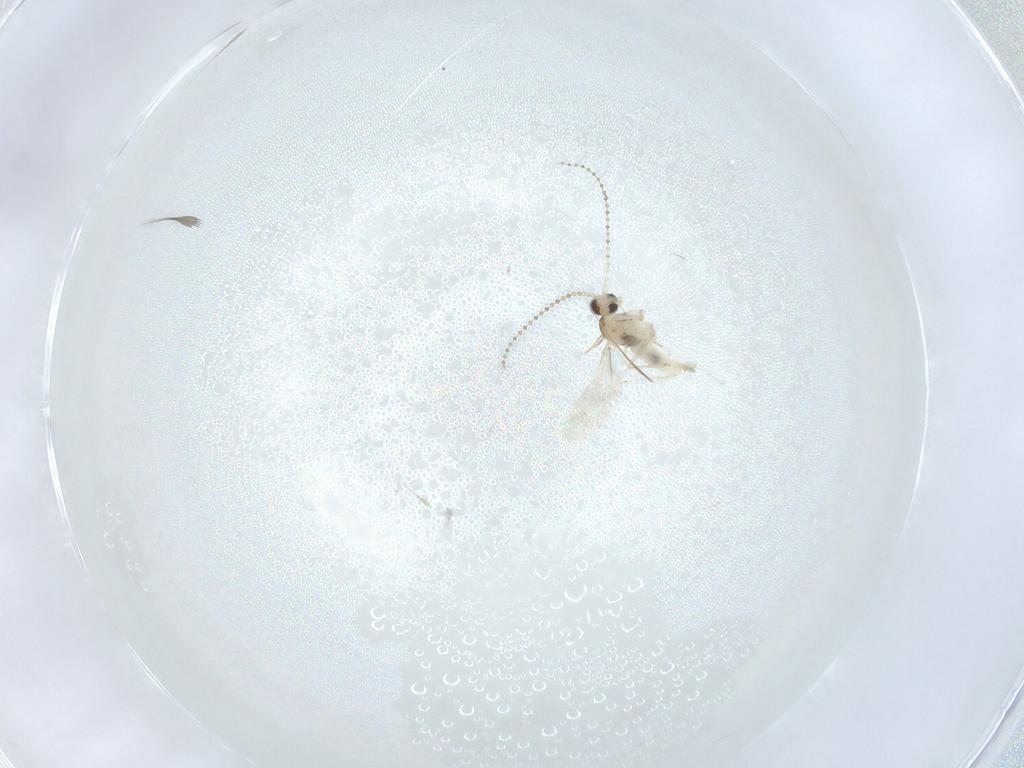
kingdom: Animalia
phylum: Arthropoda
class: Insecta
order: Diptera
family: Cecidomyiidae
